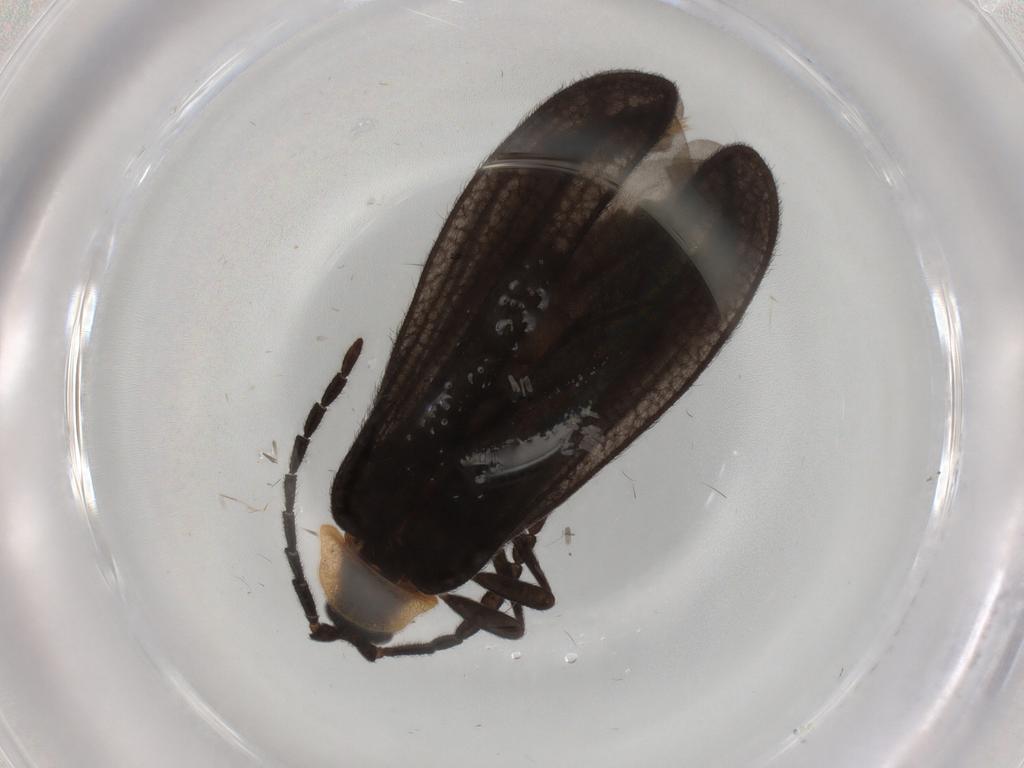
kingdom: Animalia
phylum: Arthropoda
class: Insecta
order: Coleoptera
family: Lycidae
